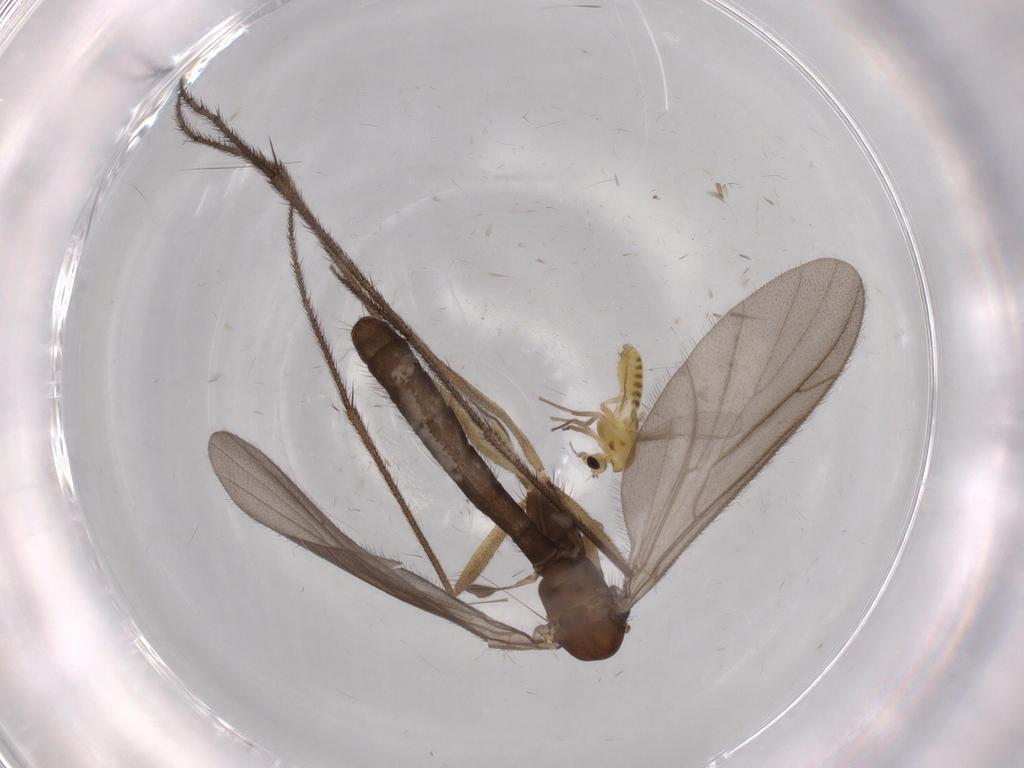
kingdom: Animalia
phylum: Arthropoda
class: Insecta
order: Diptera
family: Ditomyiidae
